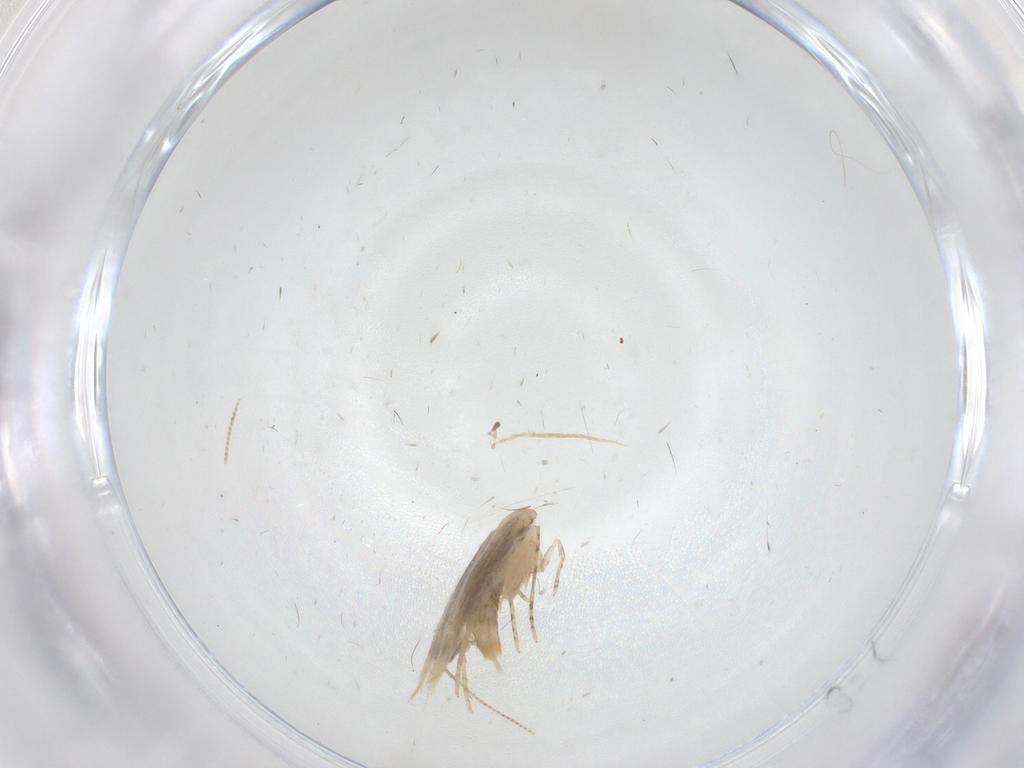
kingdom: Animalia
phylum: Arthropoda
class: Insecta
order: Lepidoptera
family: Tineidae
